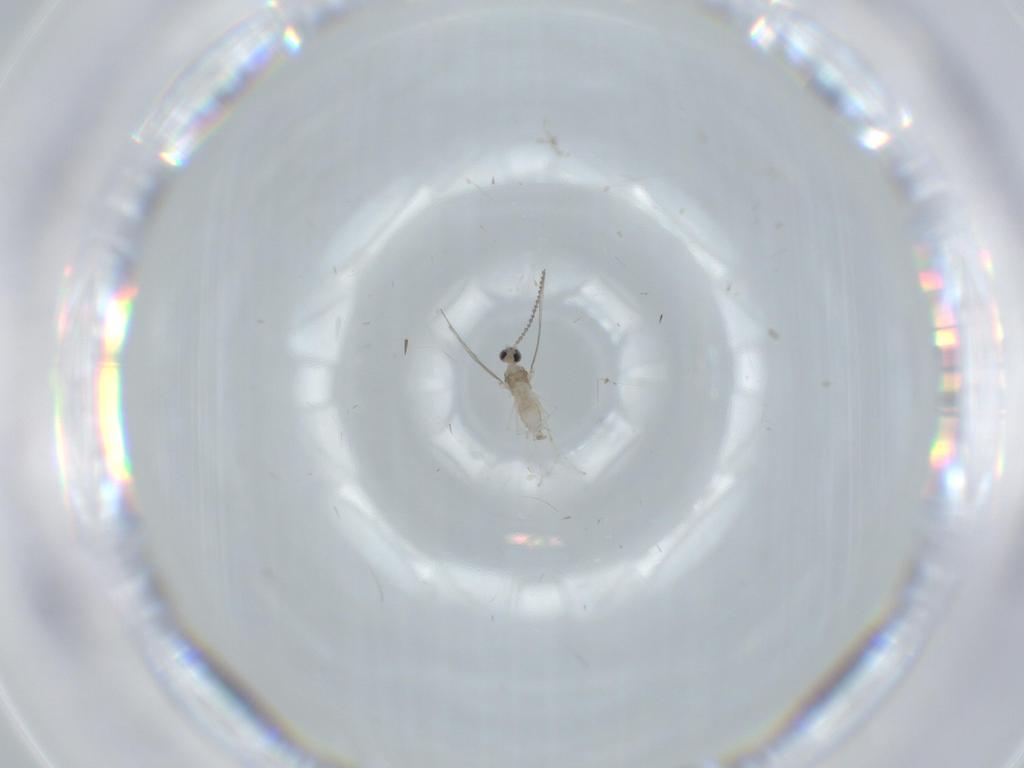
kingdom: Animalia
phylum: Arthropoda
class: Insecta
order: Diptera
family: Cecidomyiidae
